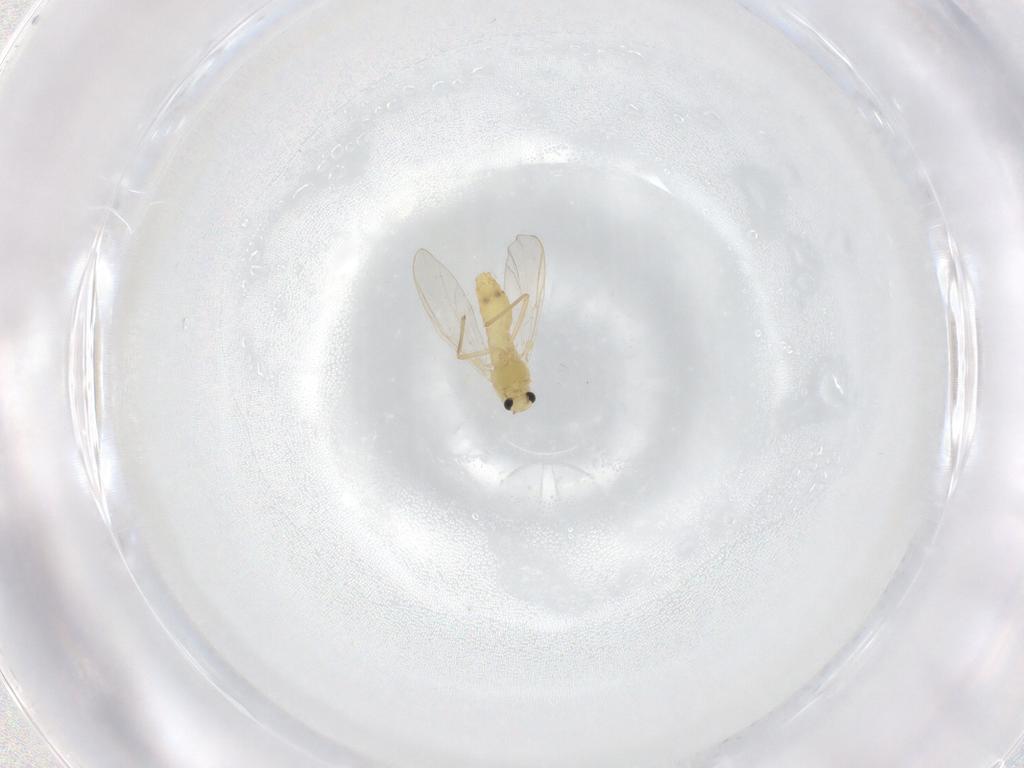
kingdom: Animalia
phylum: Arthropoda
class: Insecta
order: Diptera
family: Chironomidae
